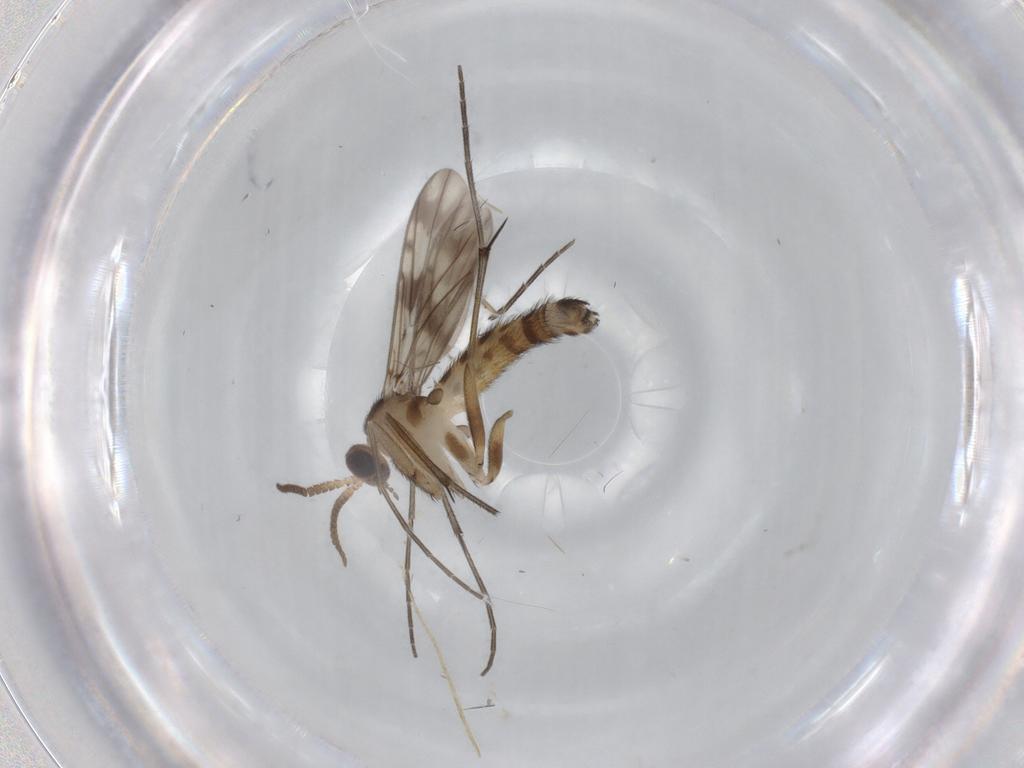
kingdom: Animalia
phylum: Arthropoda
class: Insecta
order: Diptera
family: Keroplatidae
